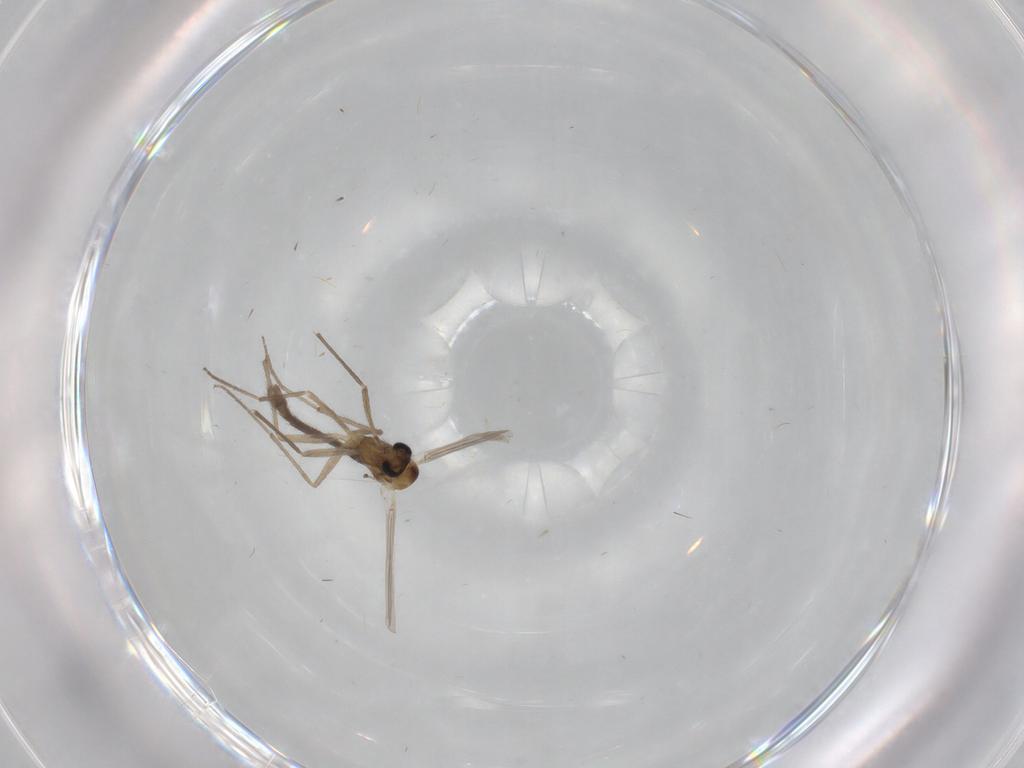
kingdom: Animalia
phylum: Arthropoda
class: Insecta
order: Diptera
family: Chironomidae
